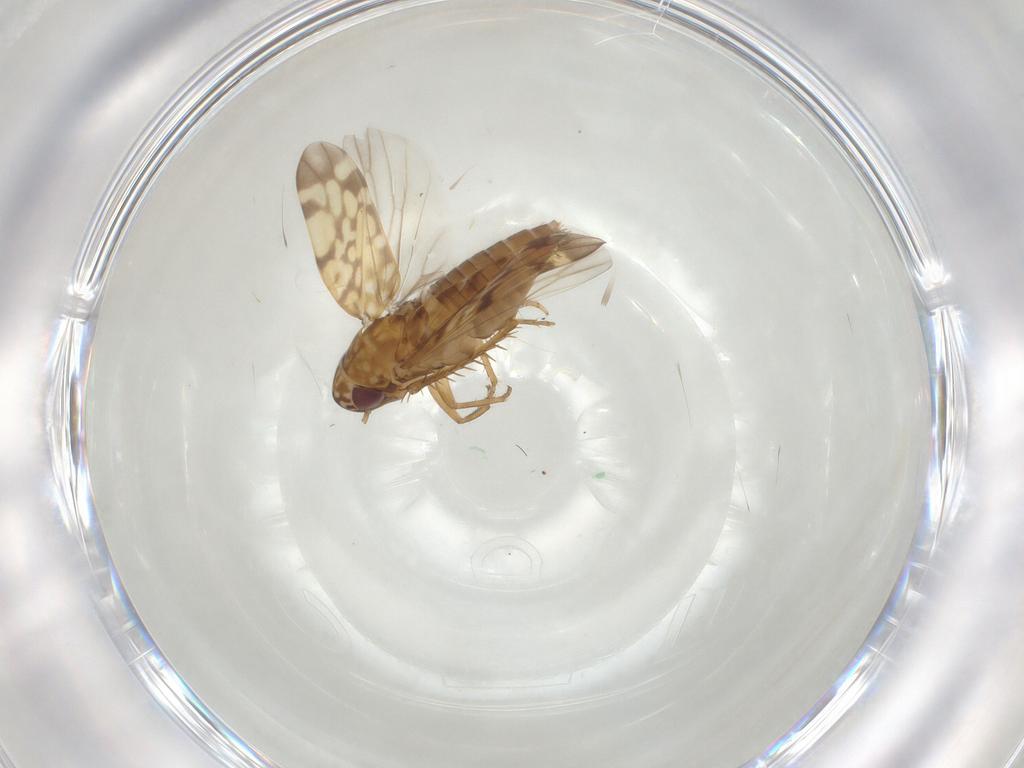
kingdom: Animalia
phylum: Arthropoda
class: Insecta
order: Hemiptera
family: Cicadellidae
